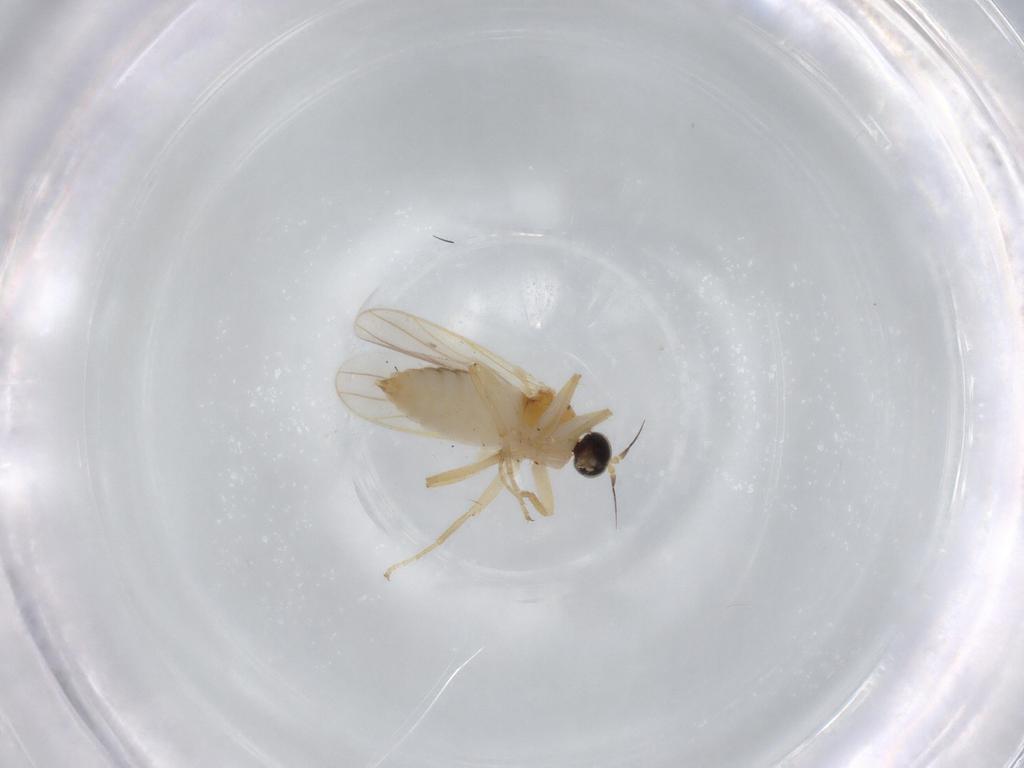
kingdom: Animalia
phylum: Arthropoda
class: Insecta
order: Diptera
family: Hybotidae
